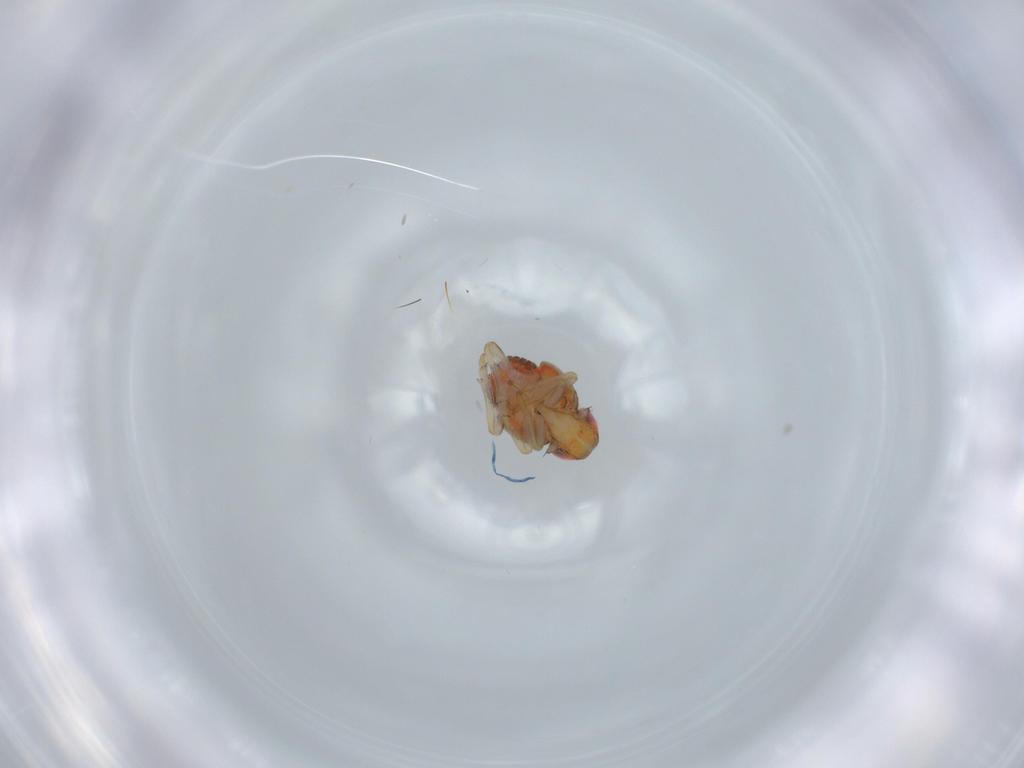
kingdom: Animalia
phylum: Arthropoda
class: Insecta
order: Hemiptera
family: Issidae
